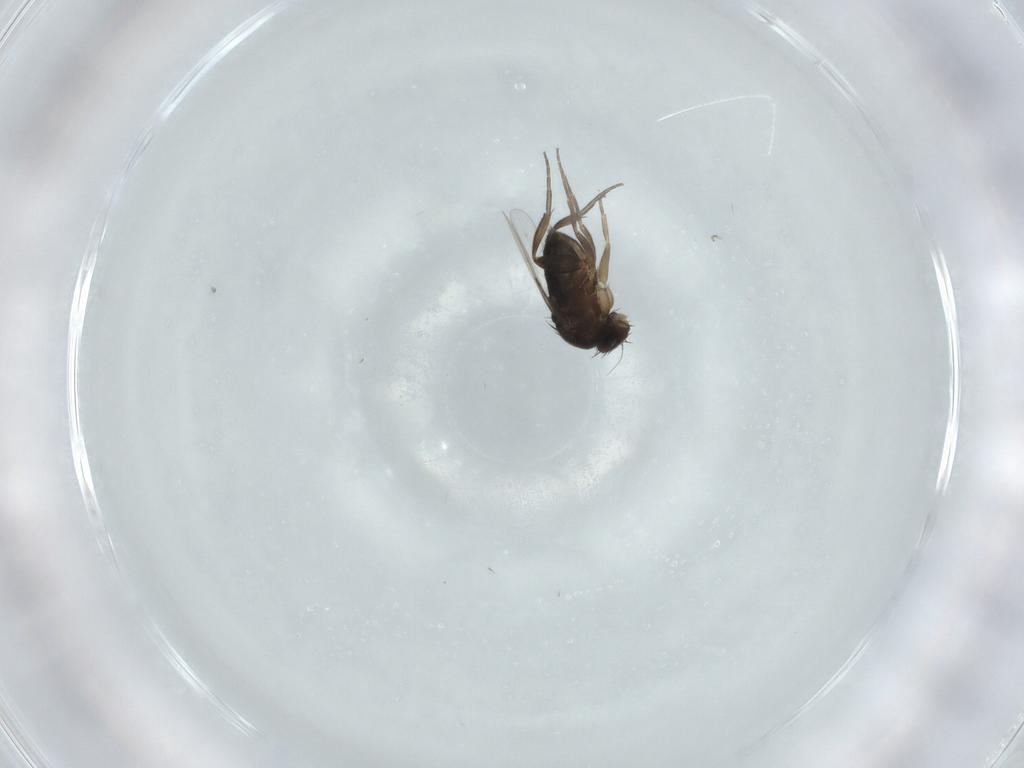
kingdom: Animalia
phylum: Arthropoda
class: Insecta
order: Diptera
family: Phoridae
